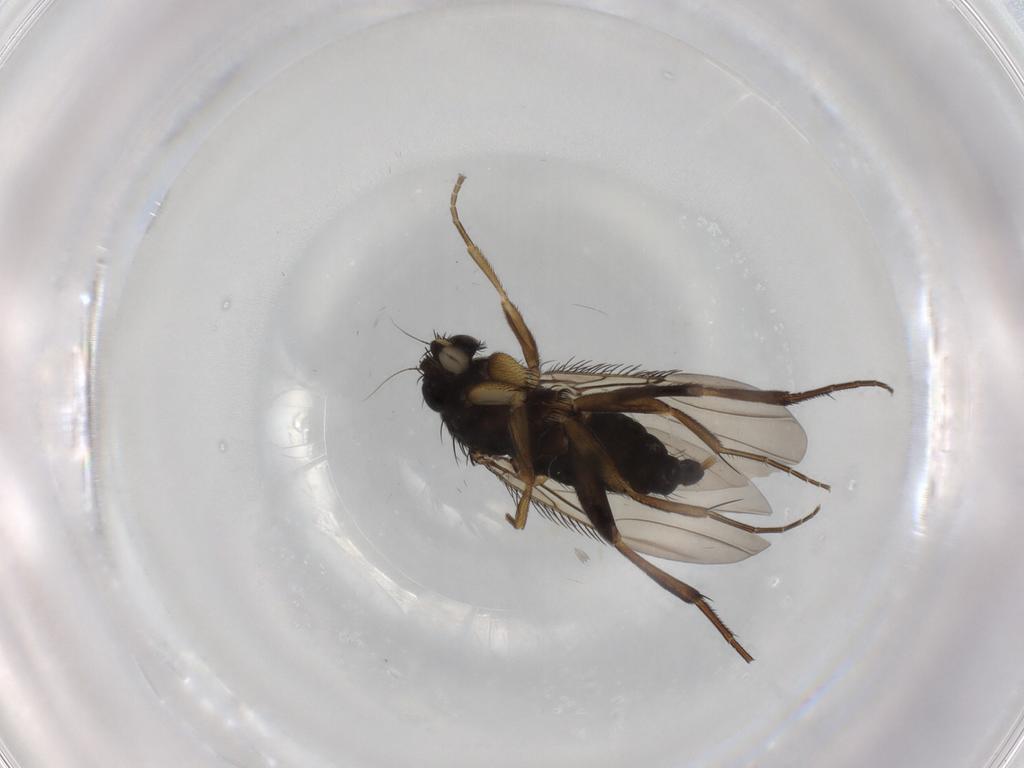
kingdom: Animalia
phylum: Arthropoda
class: Insecta
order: Diptera
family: Phoridae
